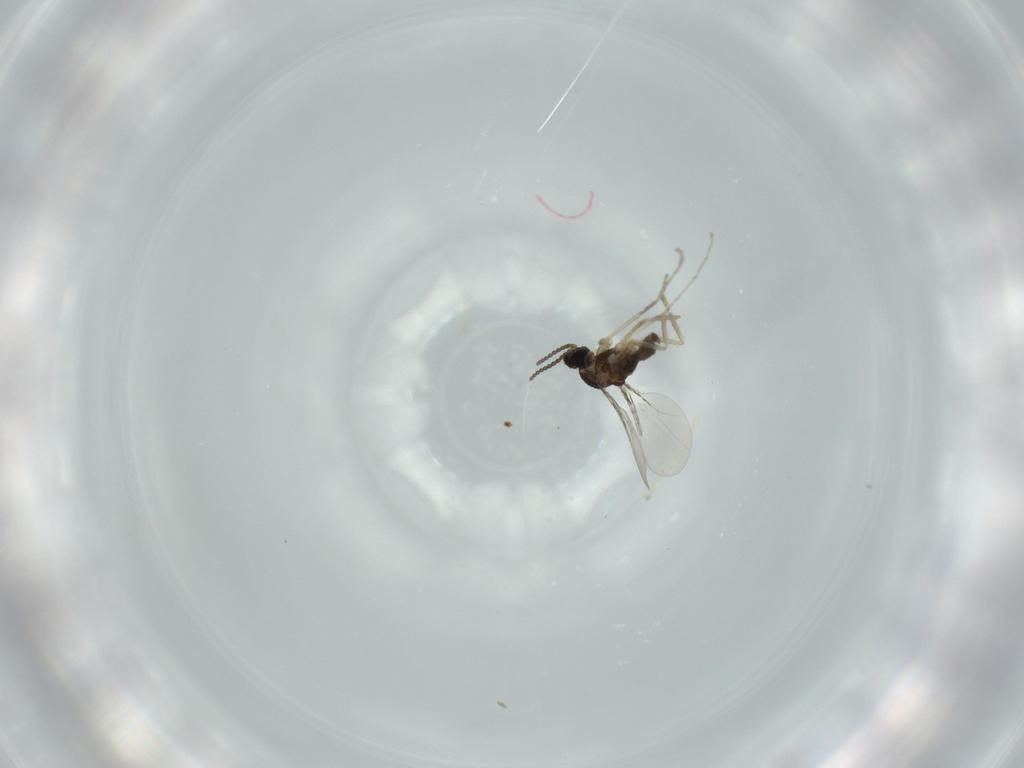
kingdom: Animalia
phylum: Arthropoda
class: Insecta
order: Diptera
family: Cecidomyiidae
